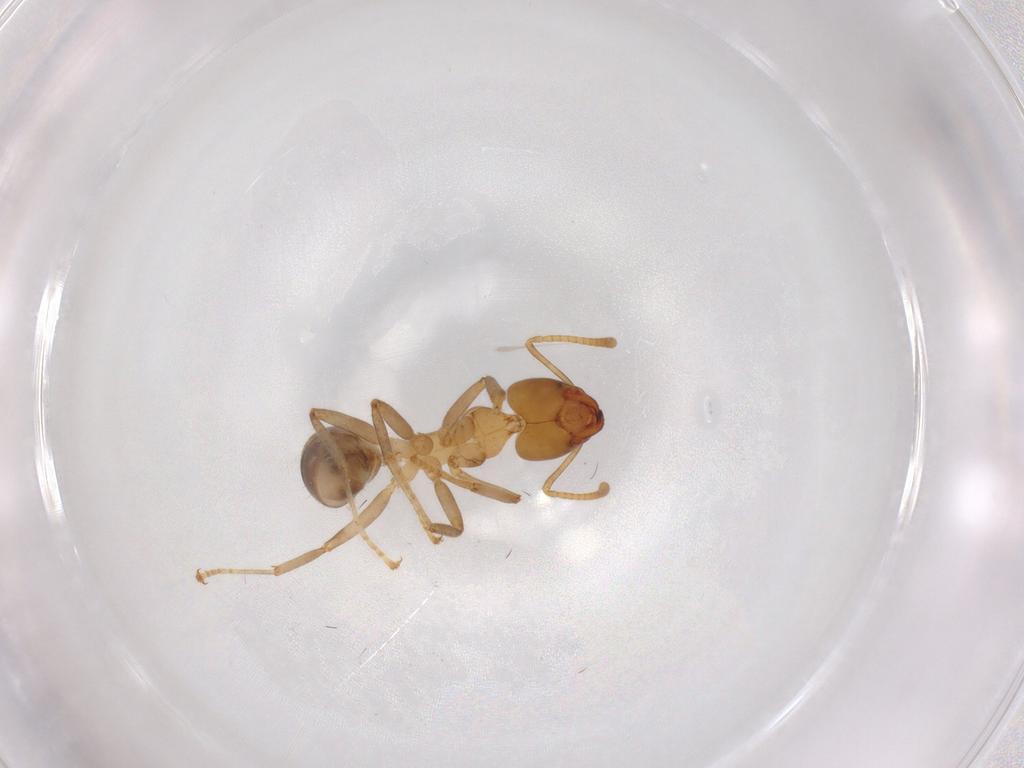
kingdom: Animalia
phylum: Arthropoda
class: Insecta
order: Hymenoptera
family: Formicidae
